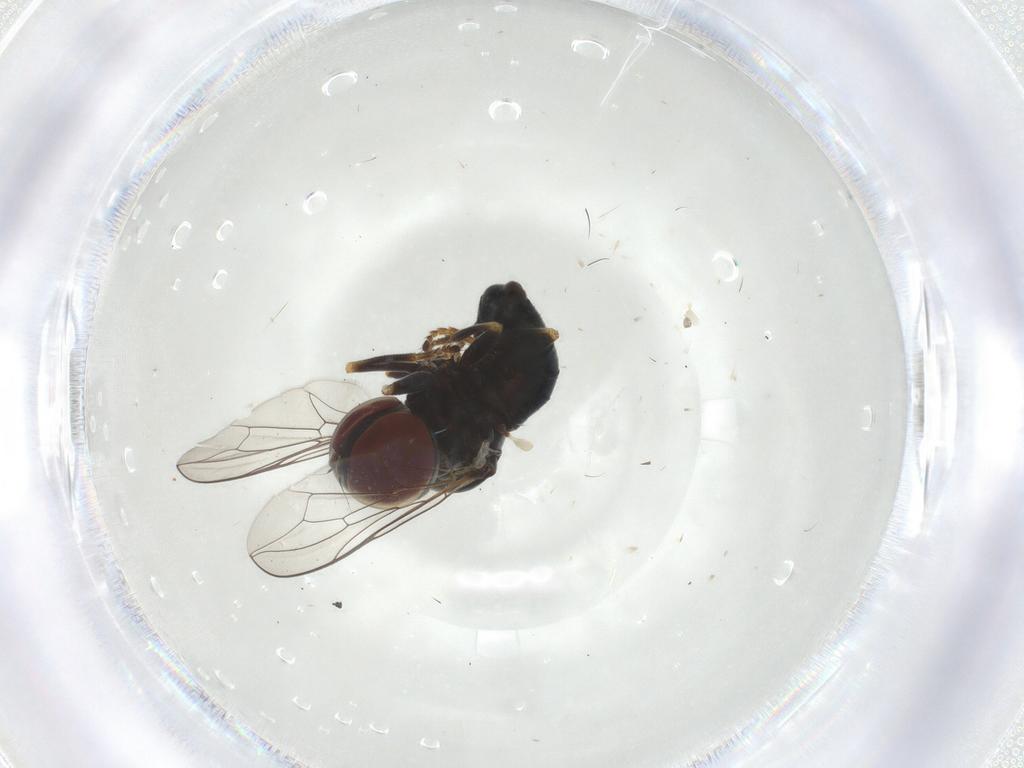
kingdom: Animalia
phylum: Arthropoda
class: Insecta
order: Diptera
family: Pipunculidae
